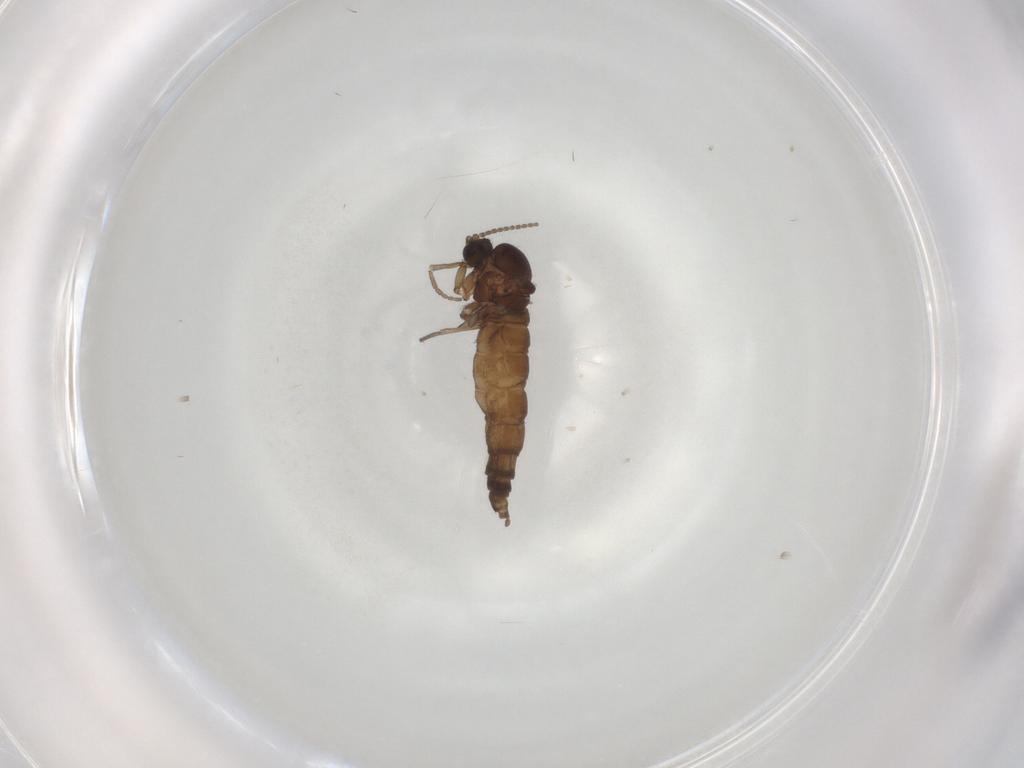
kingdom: Animalia
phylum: Arthropoda
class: Insecta
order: Diptera
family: Sciaridae
